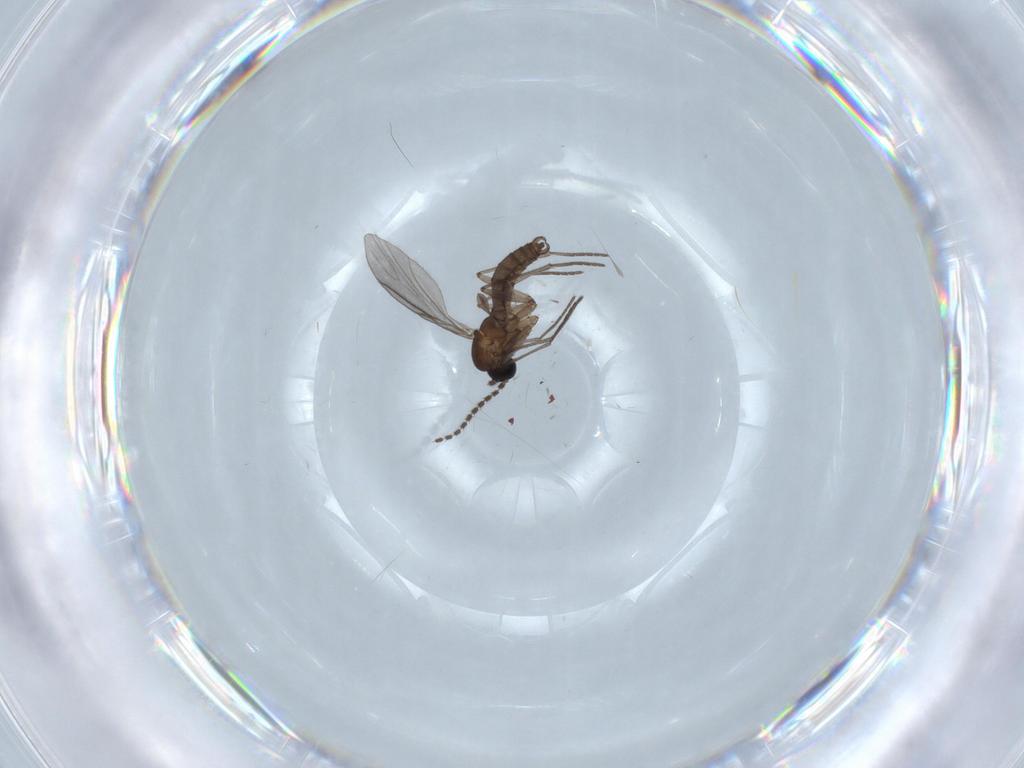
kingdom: Animalia
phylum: Arthropoda
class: Insecta
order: Diptera
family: Sciaridae
